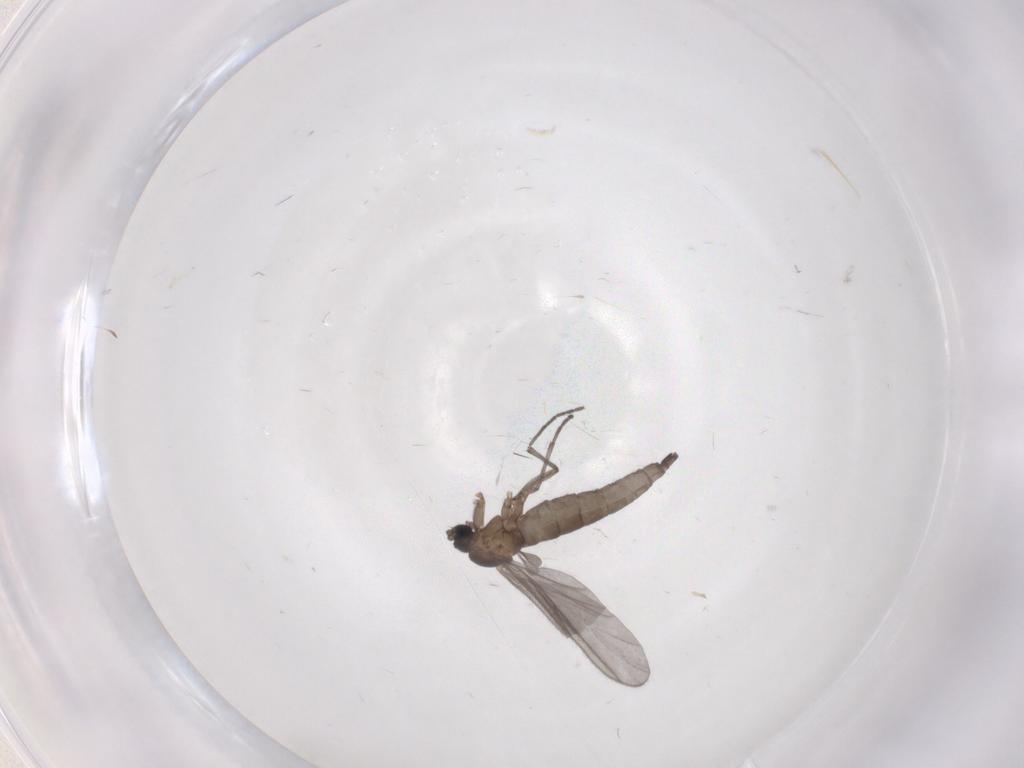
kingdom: Animalia
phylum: Arthropoda
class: Insecta
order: Diptera
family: Sciaridae
